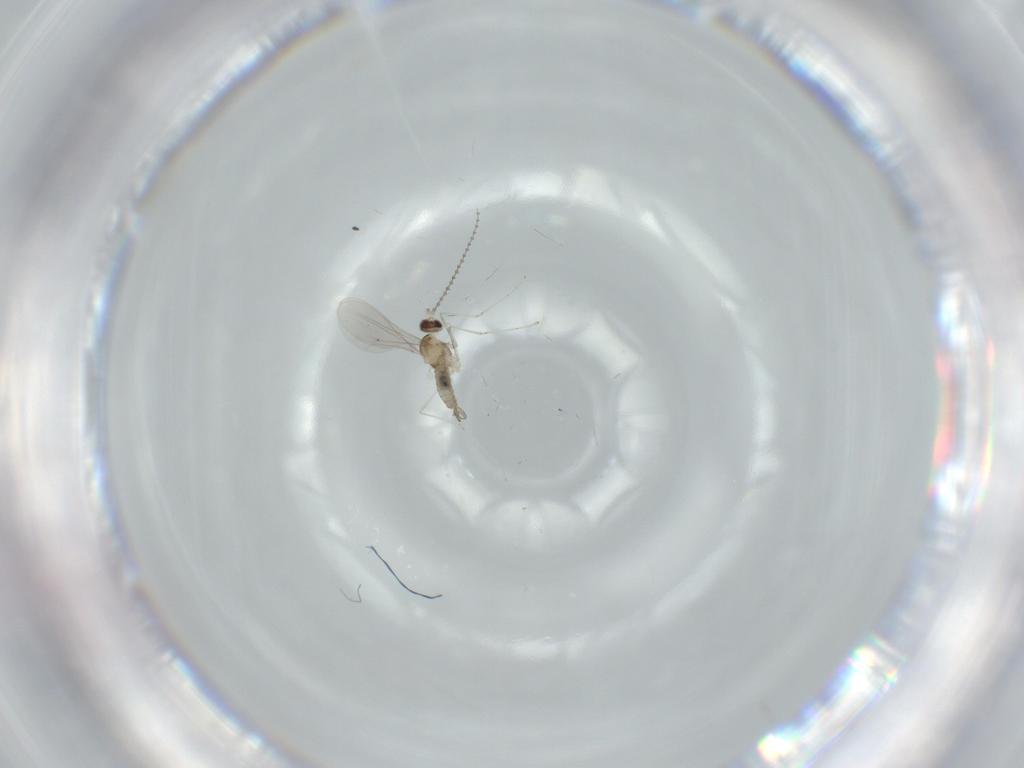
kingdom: Animalia
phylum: Arthropoda
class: Insecta
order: Diptera
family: Cecidomyiidae
